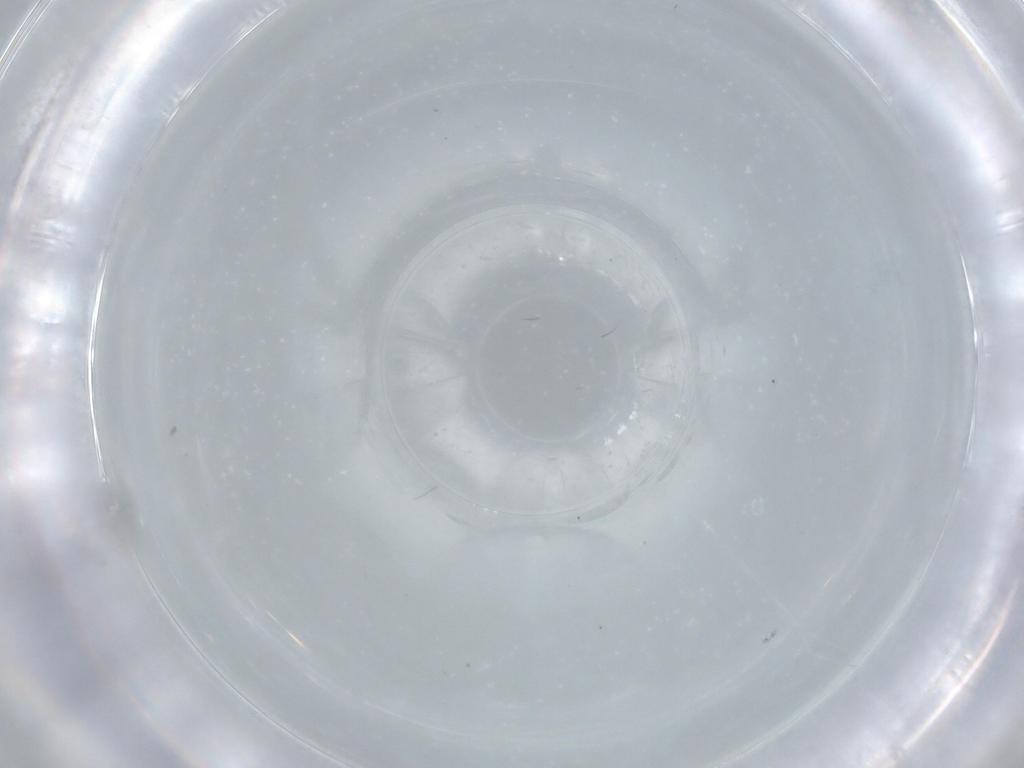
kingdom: Animalia
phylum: Arthropoda
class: Insecta
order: Hymenoptera
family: Mymaridae
